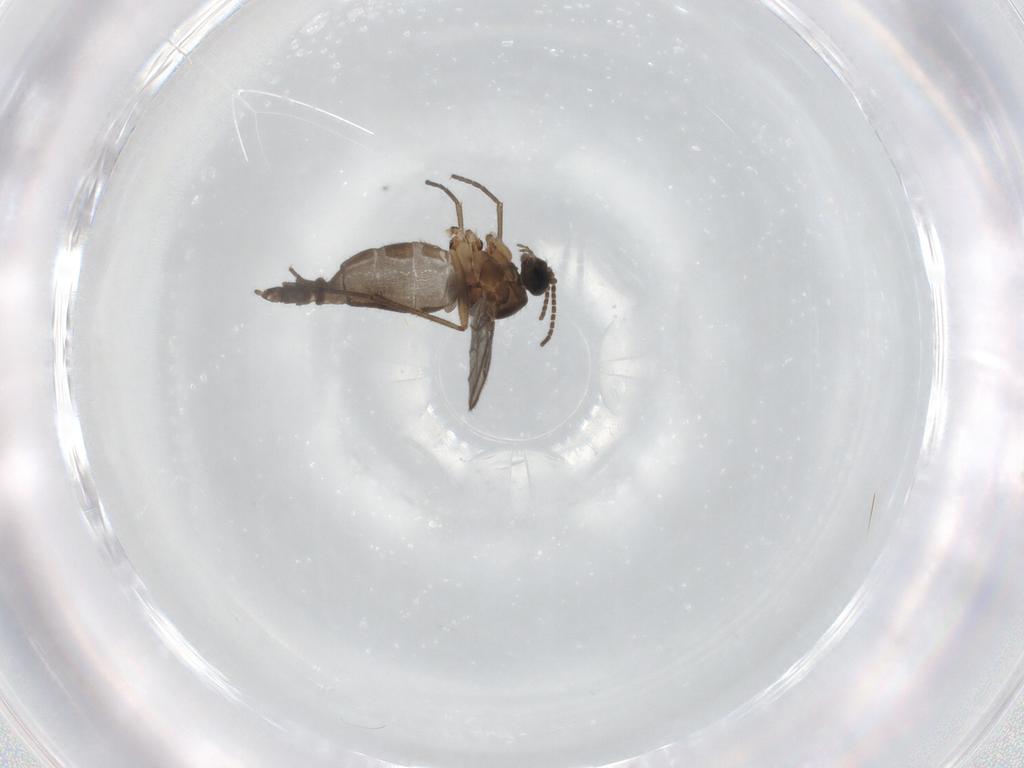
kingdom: Animalia
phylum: Arthropoda
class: Insecta
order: Diptera
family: Sciaridae
